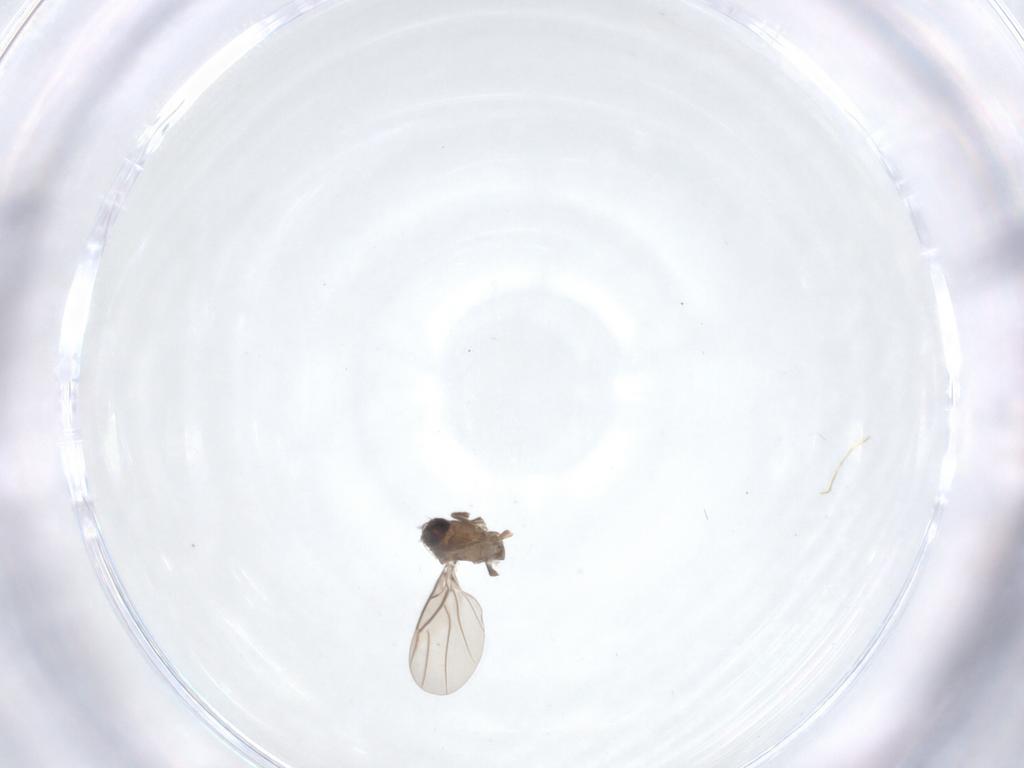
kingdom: Animalia
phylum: Arthropoda
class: Insecta
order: Diptera
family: Phoridae
